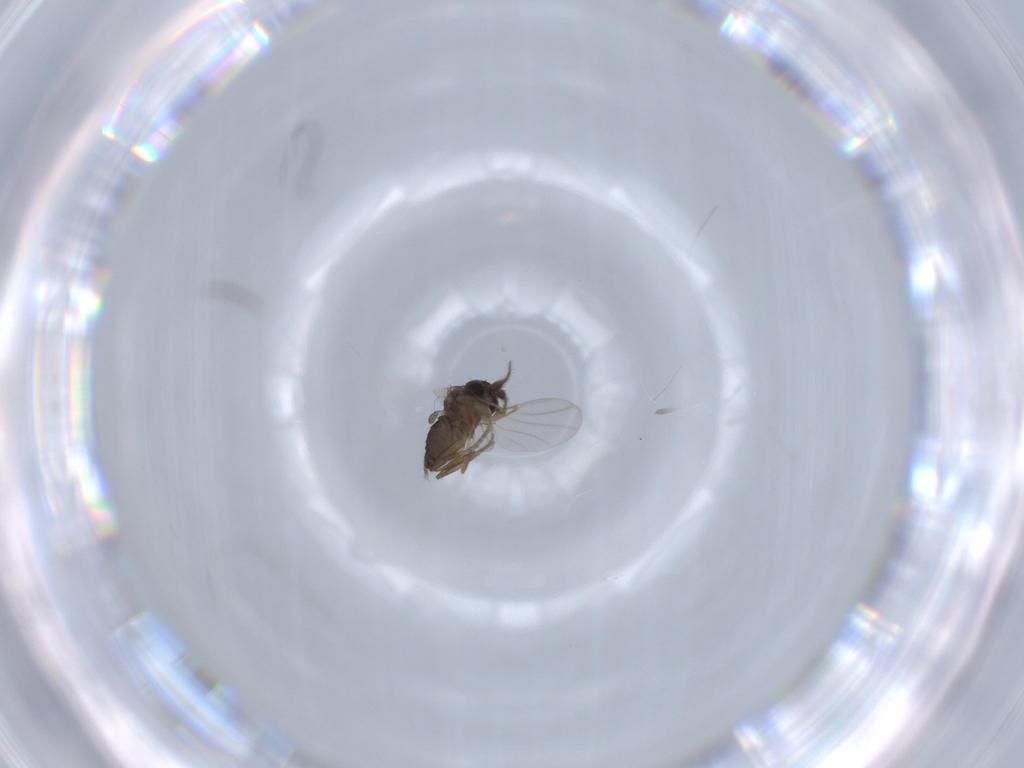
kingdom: Animalia
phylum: Arthropoda
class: Insecta
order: Diptera
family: Phoridae
